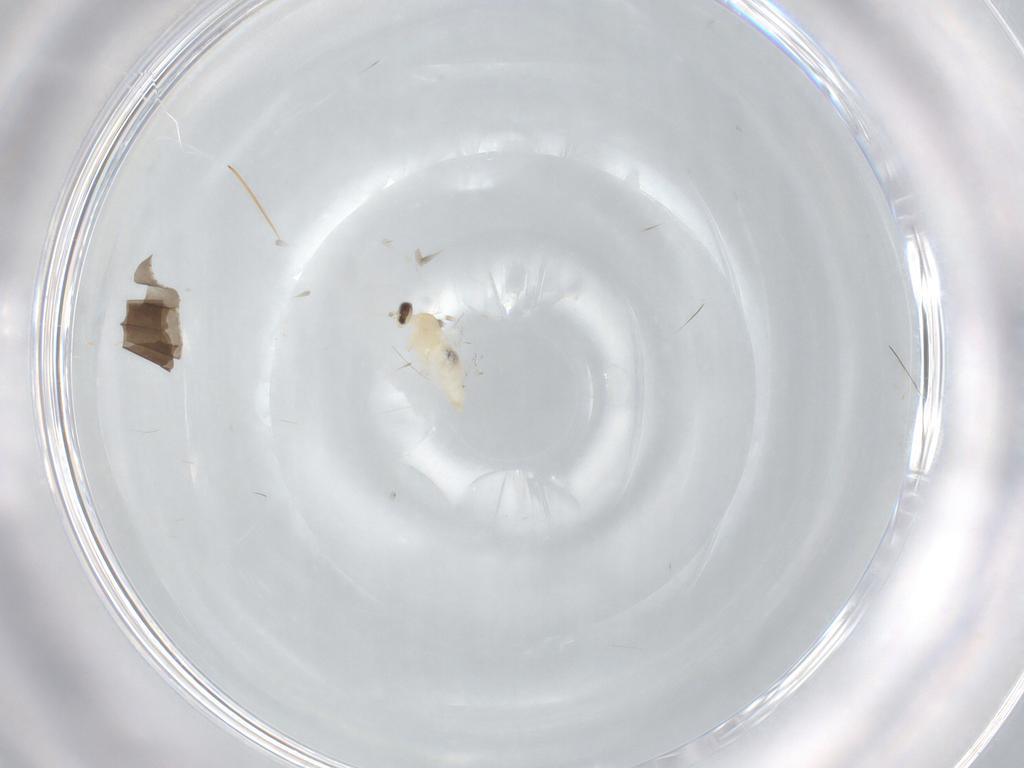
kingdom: Animalia
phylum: Arthropoda
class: Insecta
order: Diptera
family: Cecidomyiidae
